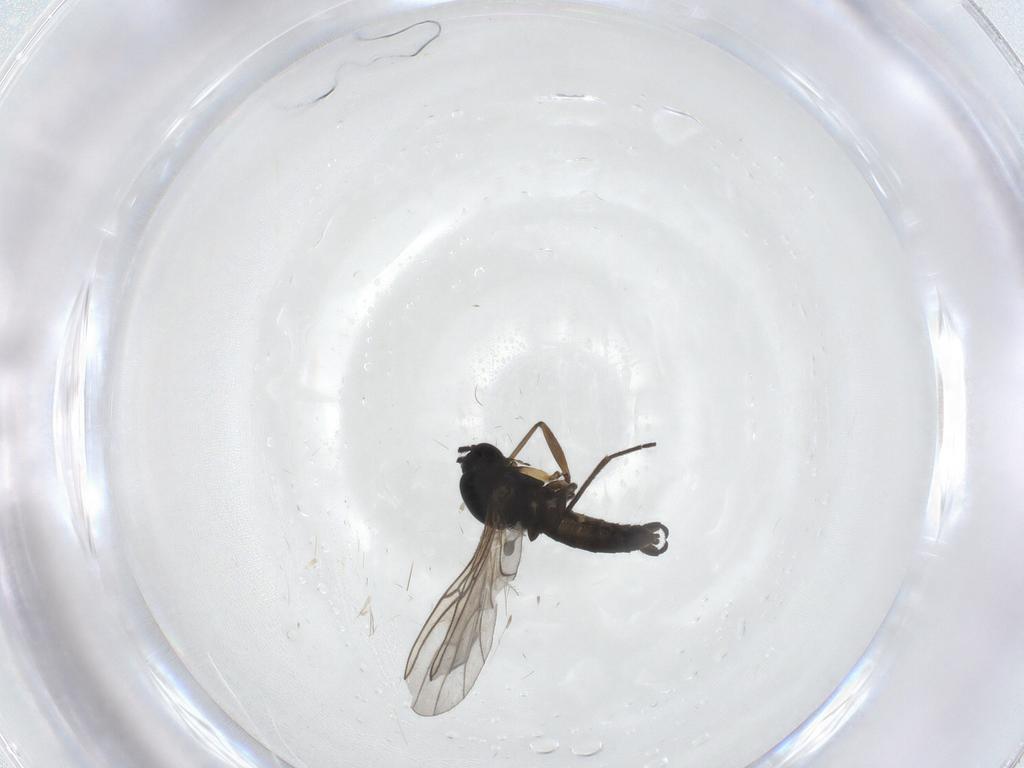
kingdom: Animalia
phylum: Arthropoda
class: Insecta
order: Diptera
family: Sciaridae
